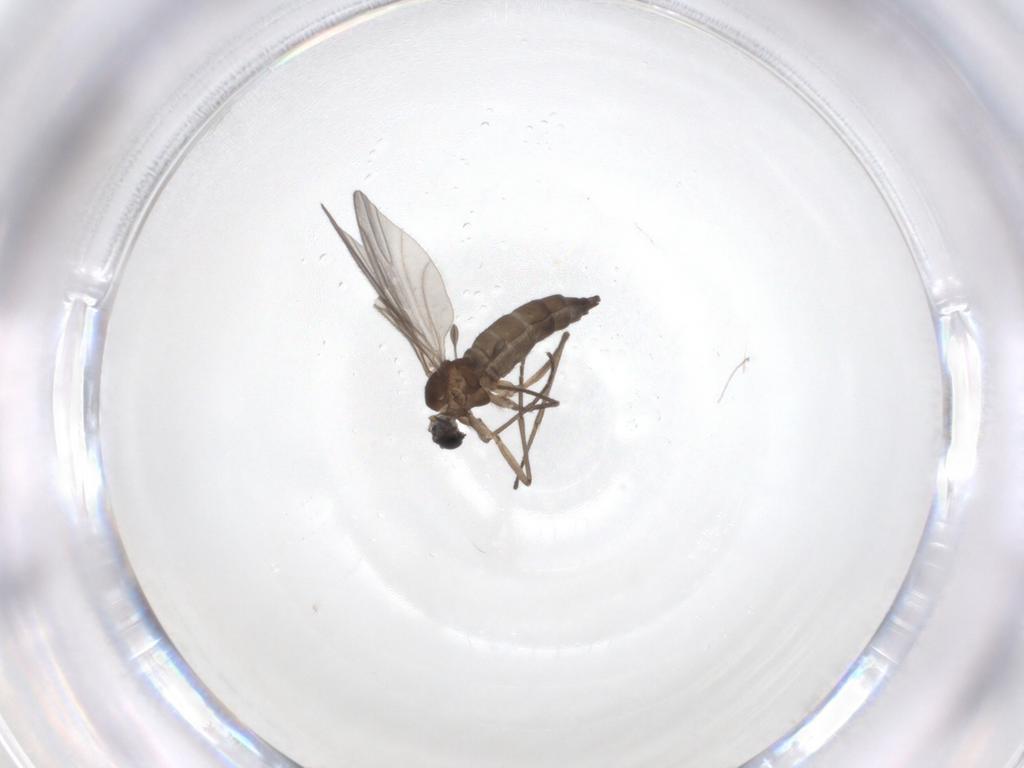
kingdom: Animalia
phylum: Arthropoda
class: Insecta
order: Diptera
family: Sciaridae
